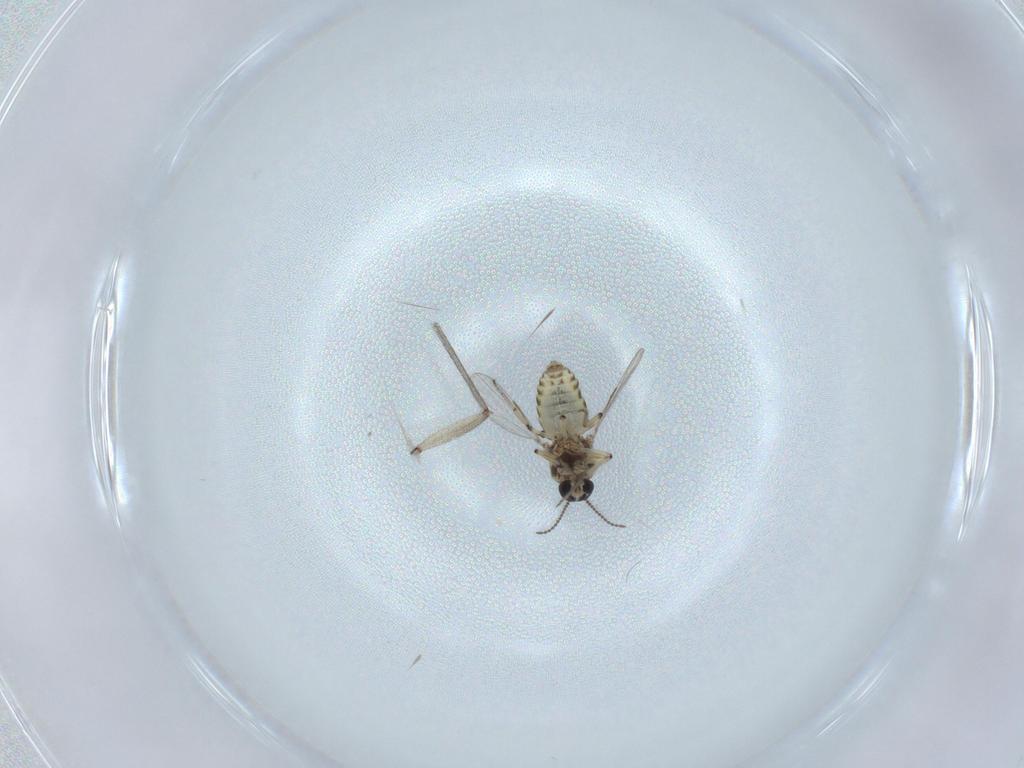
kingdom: Animalia
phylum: Arthropoda
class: Insecta
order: Diptera
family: Sciaridae
